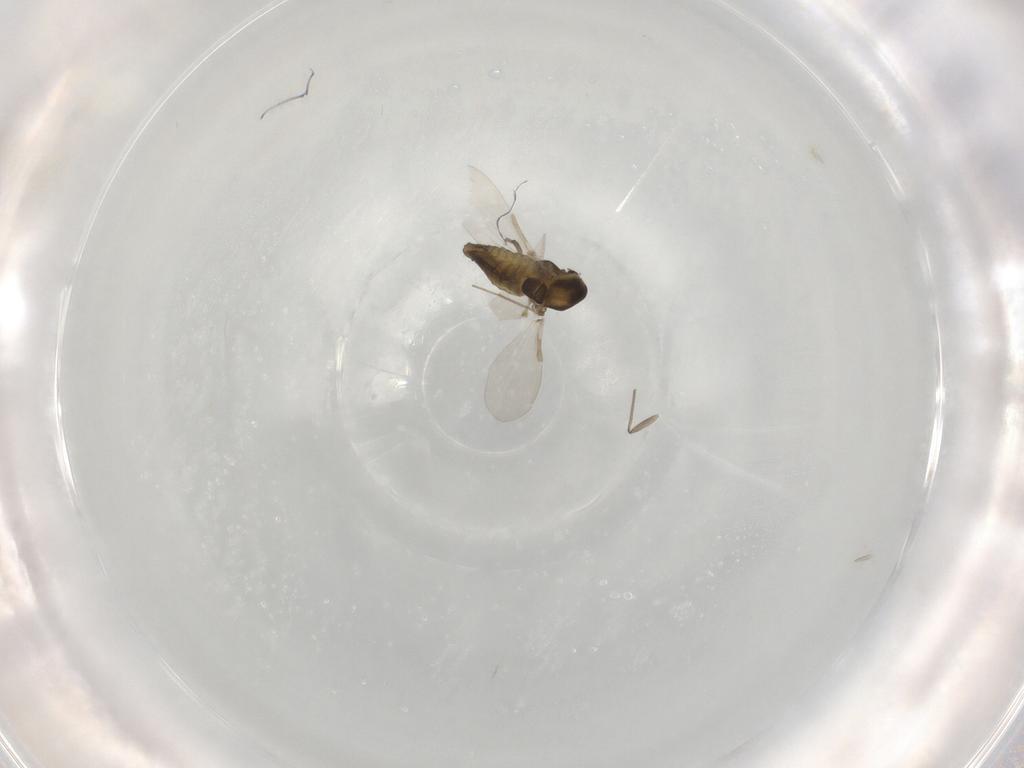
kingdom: Animalia
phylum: Arthropoda
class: Insecta
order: Diptera
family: Chironomidae
